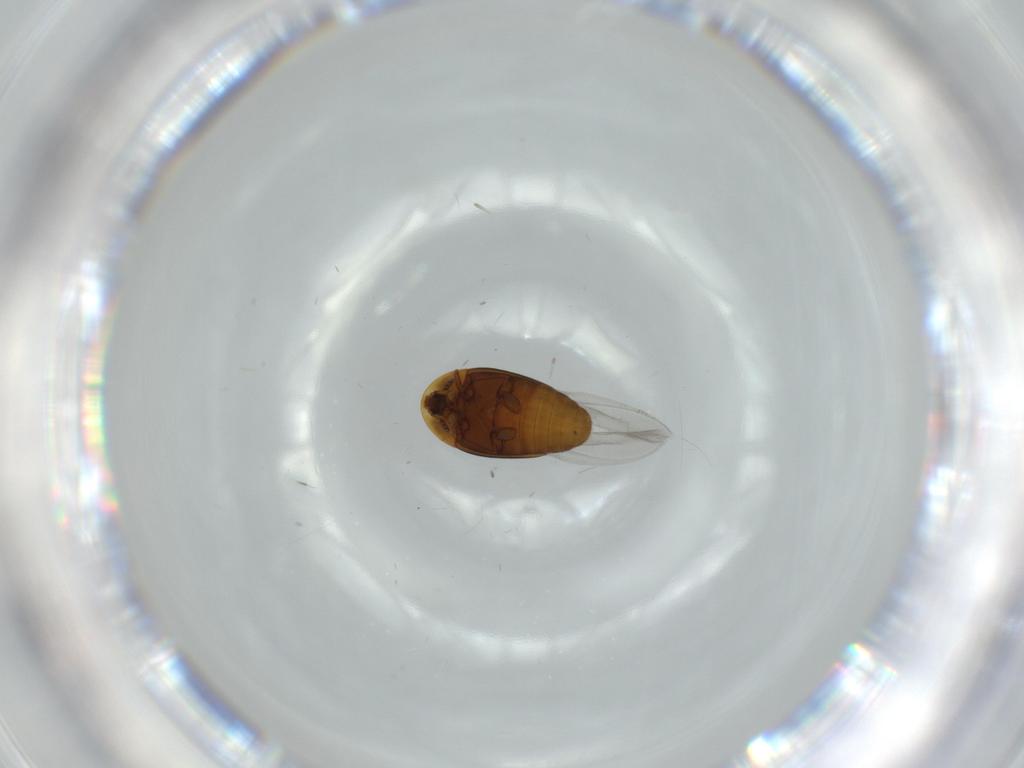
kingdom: Animalia
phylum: Arthropoda
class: Insecta
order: Coleoptera
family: Corylophidae
